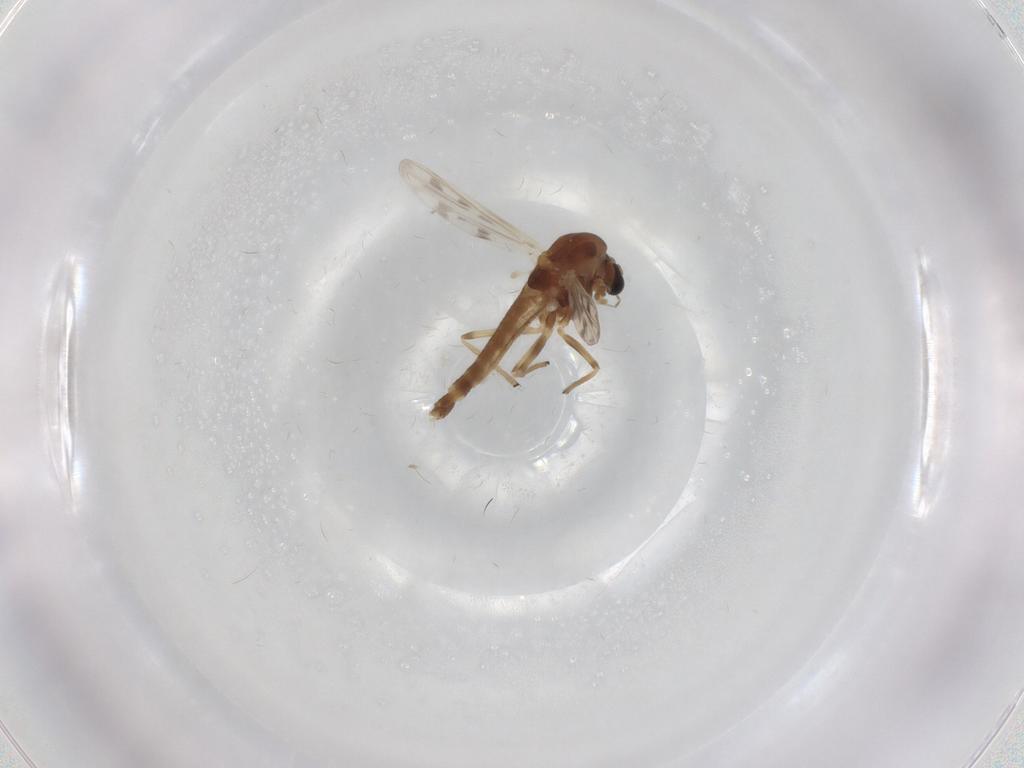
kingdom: Animalia
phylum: Arthropoda
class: Insecta
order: Diptera
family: Chironomidae
